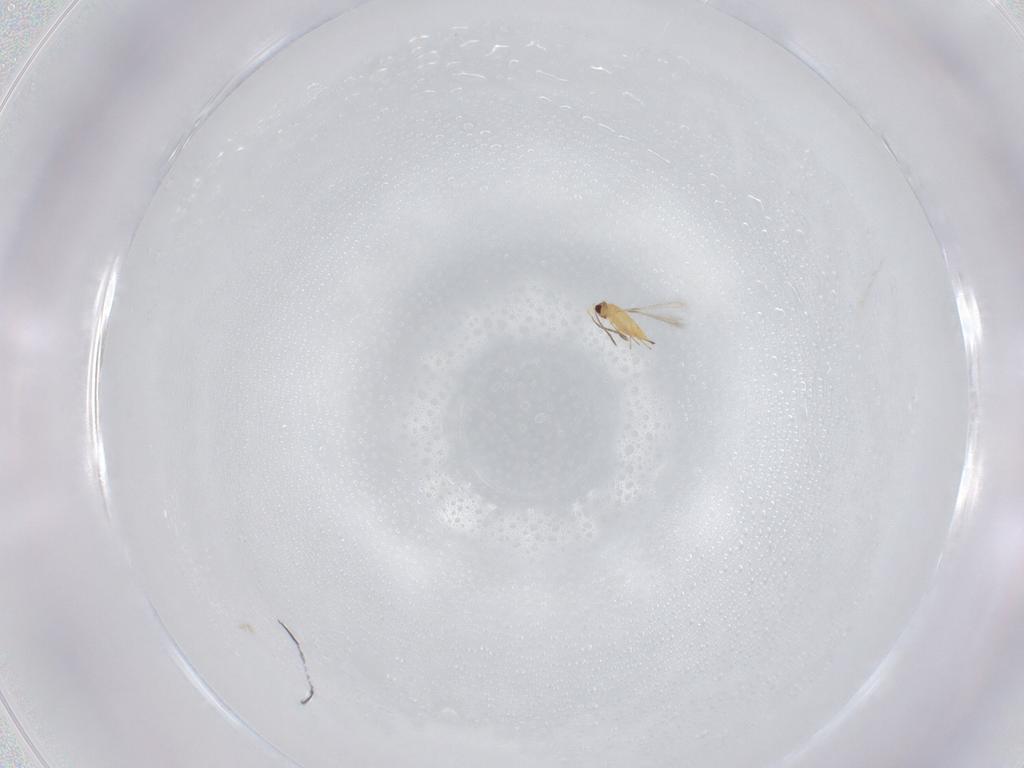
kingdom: Animalia
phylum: Arthropoda
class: Insecta
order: Hymenoptera
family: Mymaridae
